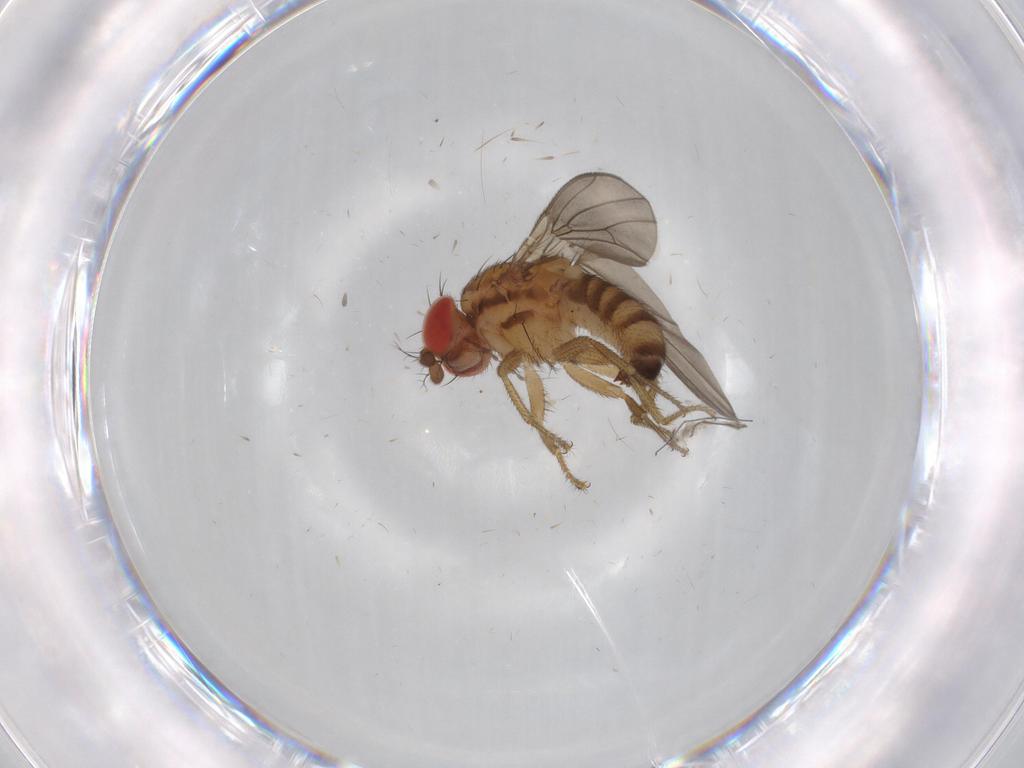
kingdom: Animalia
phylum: Arthropoda
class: Insecta
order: Diptera
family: Drosophilidae
